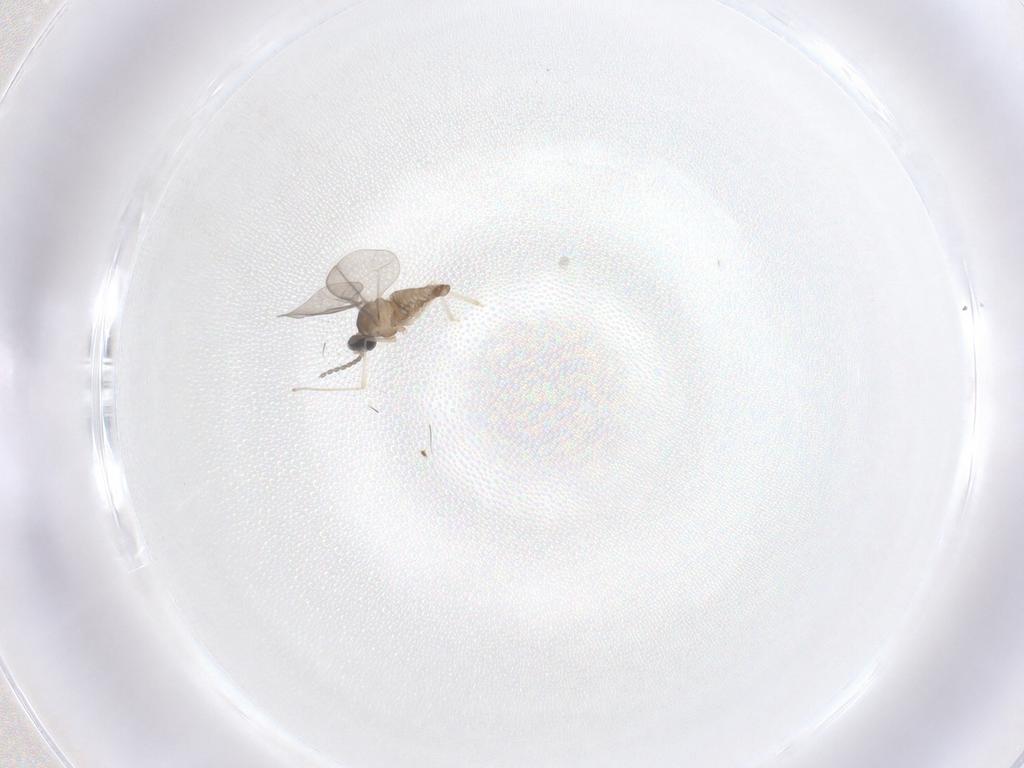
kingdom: Animalia
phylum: Arthropoda
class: Insecta
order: Diptera
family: Cecidomyiidae
